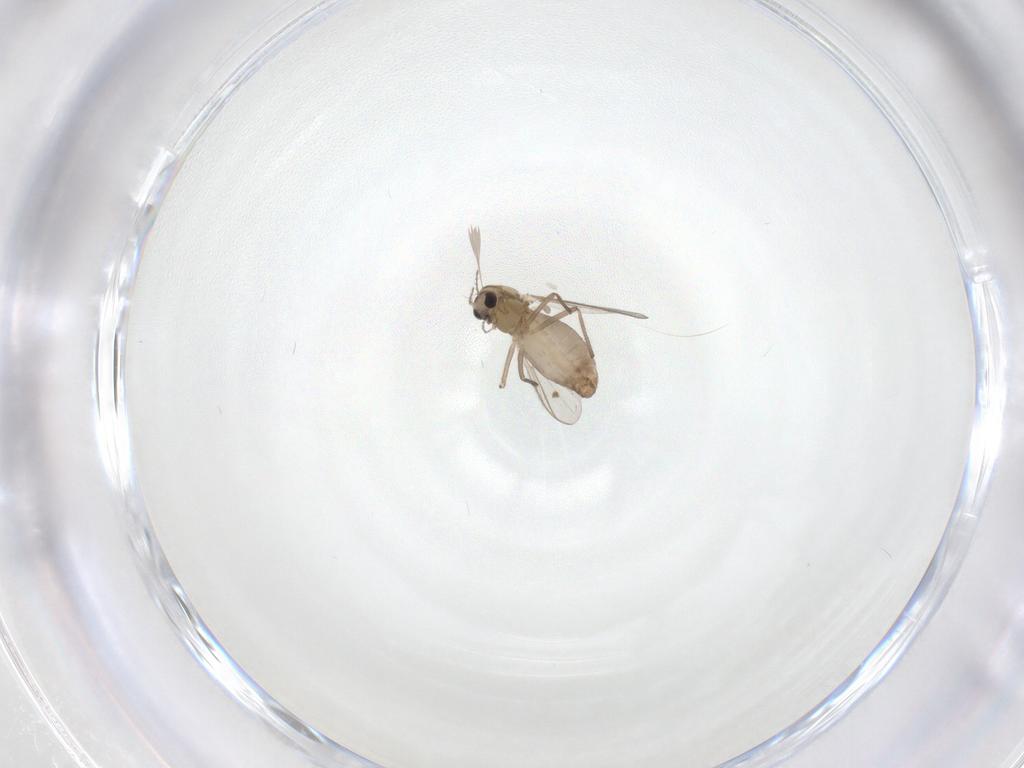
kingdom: Animalia
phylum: Arthropoda
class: Insecta
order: Diptera
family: Chironomidae
